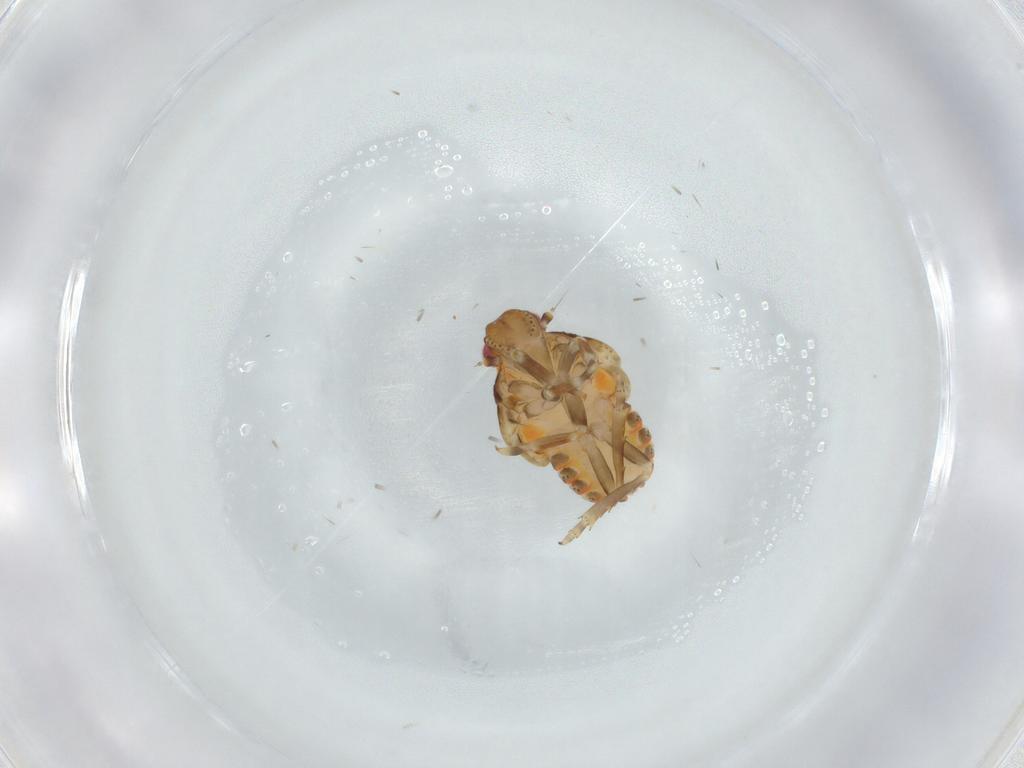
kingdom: Animalia
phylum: Arthropoda
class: Insecta
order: Hemiptera
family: Flatidae
